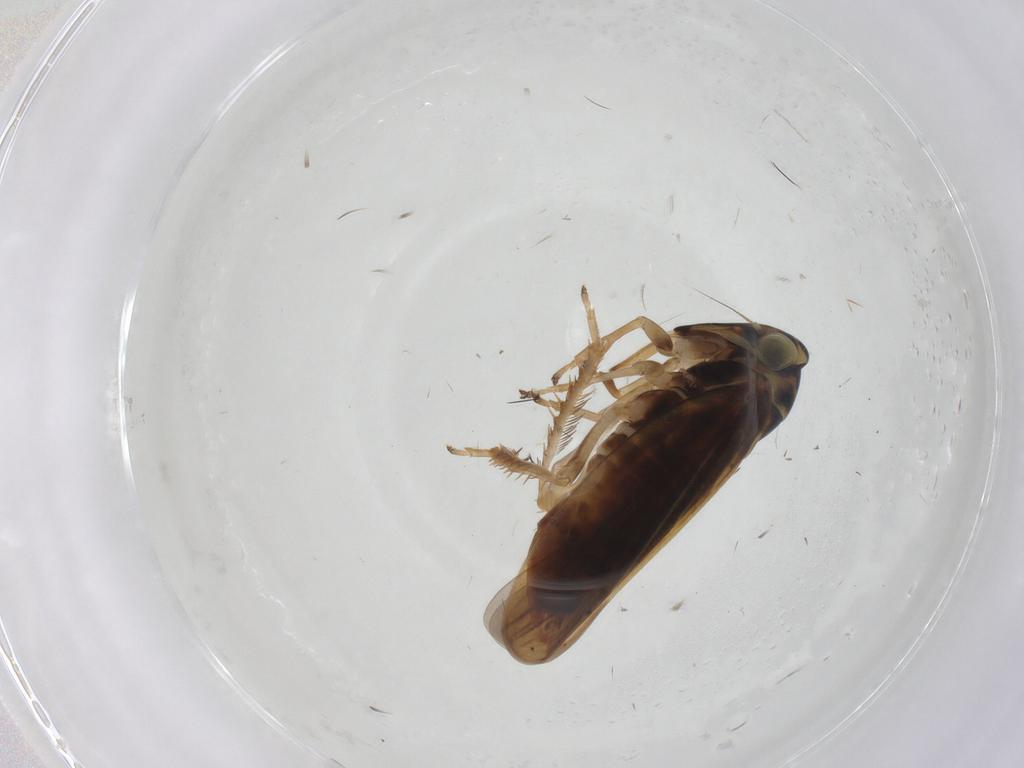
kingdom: Animalia
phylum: Arthropoda
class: Insecta
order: Hemiptera
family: Cicadellidae
